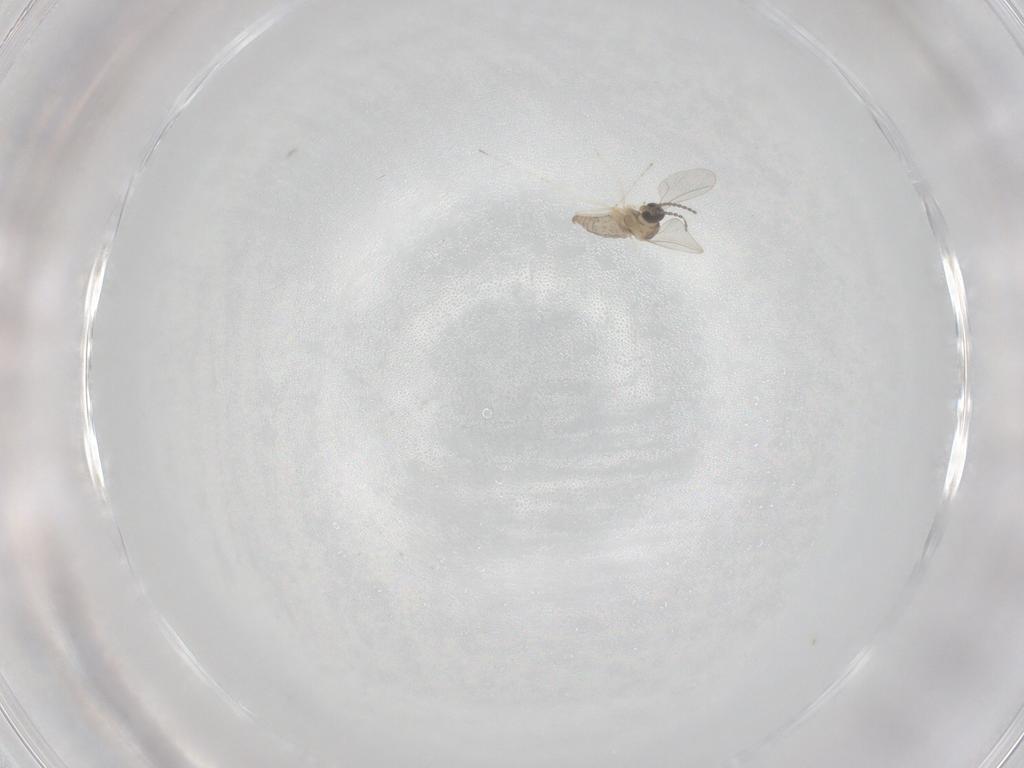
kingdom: Animalia
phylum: Arthropoda
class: Insecta
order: Diptera
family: Cecidomyiidae
